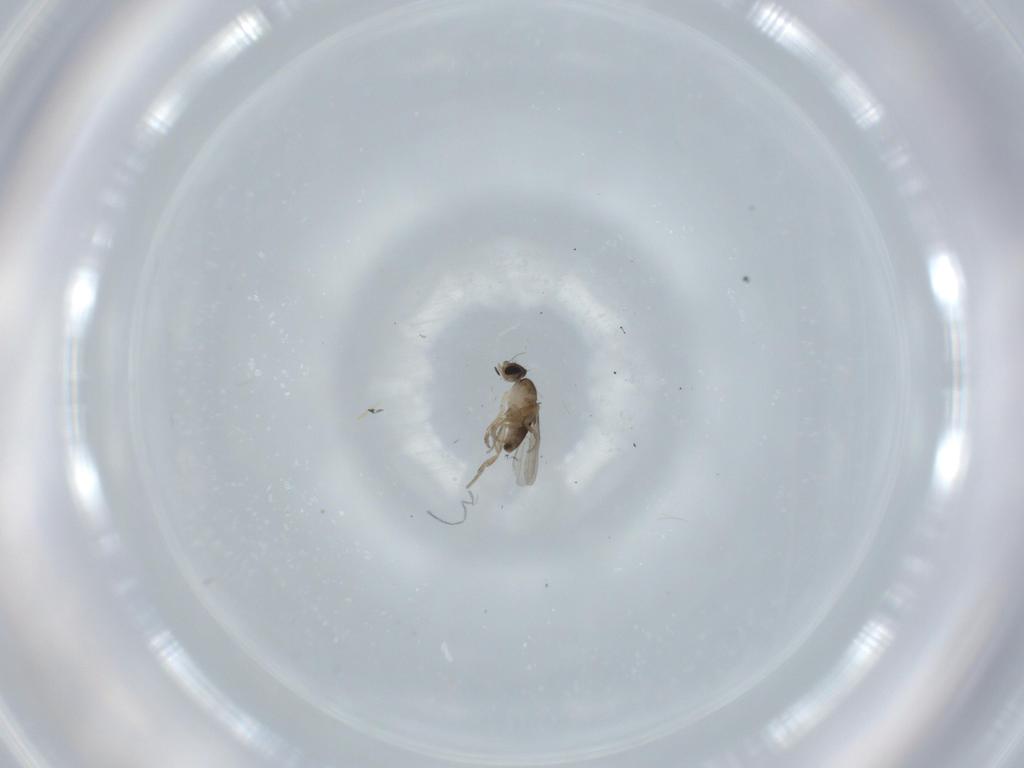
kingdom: Animalia
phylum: Arthropoda
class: Insecta
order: Diptera
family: Phoridae
